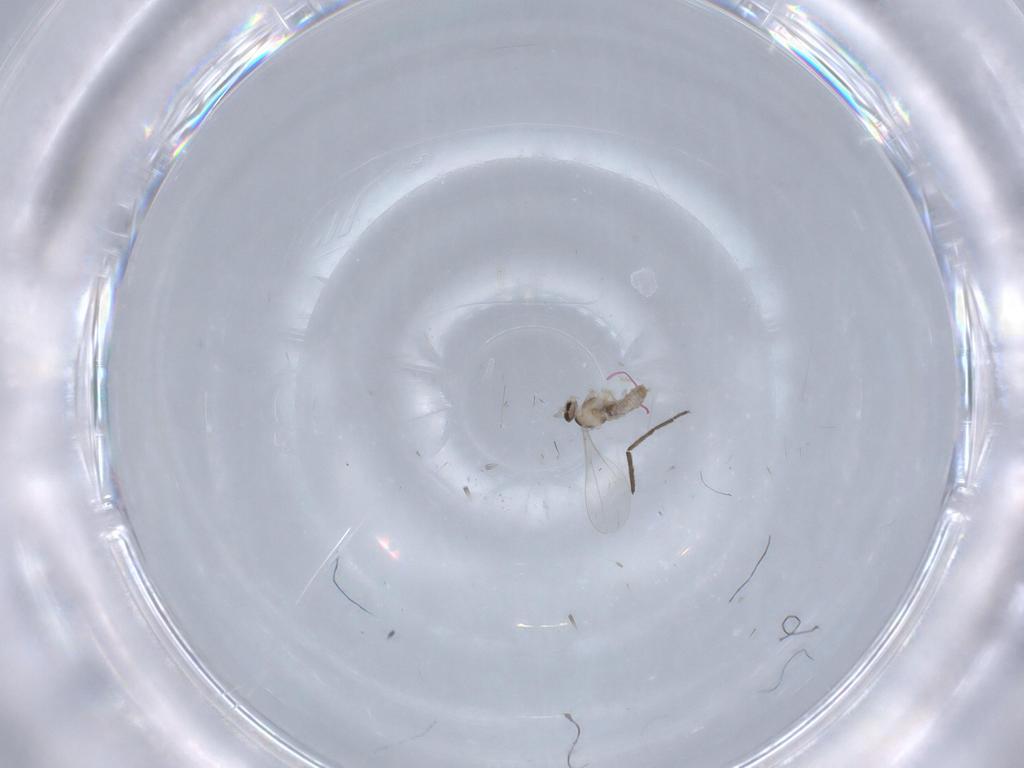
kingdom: Animalia
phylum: Arthropoda
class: Insecta
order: Diptera
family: Cecidomyiidae
